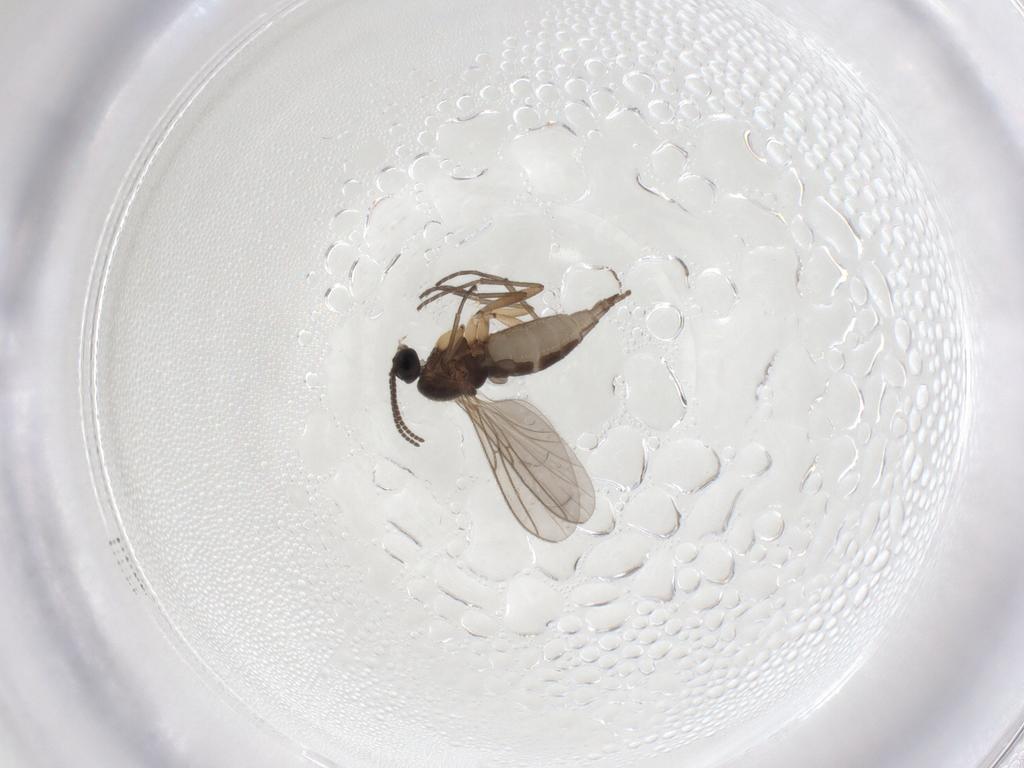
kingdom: Animalia
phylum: Arthropoda
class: Insecta
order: Diptera
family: Sciaridae
